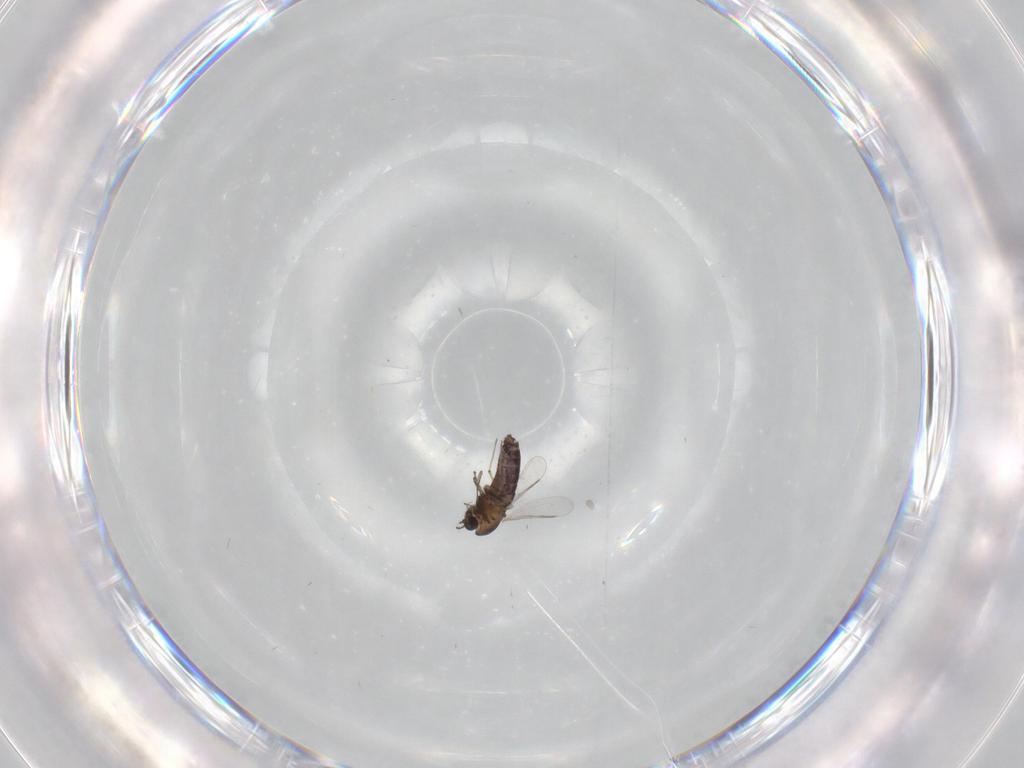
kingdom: Animalia
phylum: Arthropoda
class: Insecta
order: Diptera
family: Chironomidae
